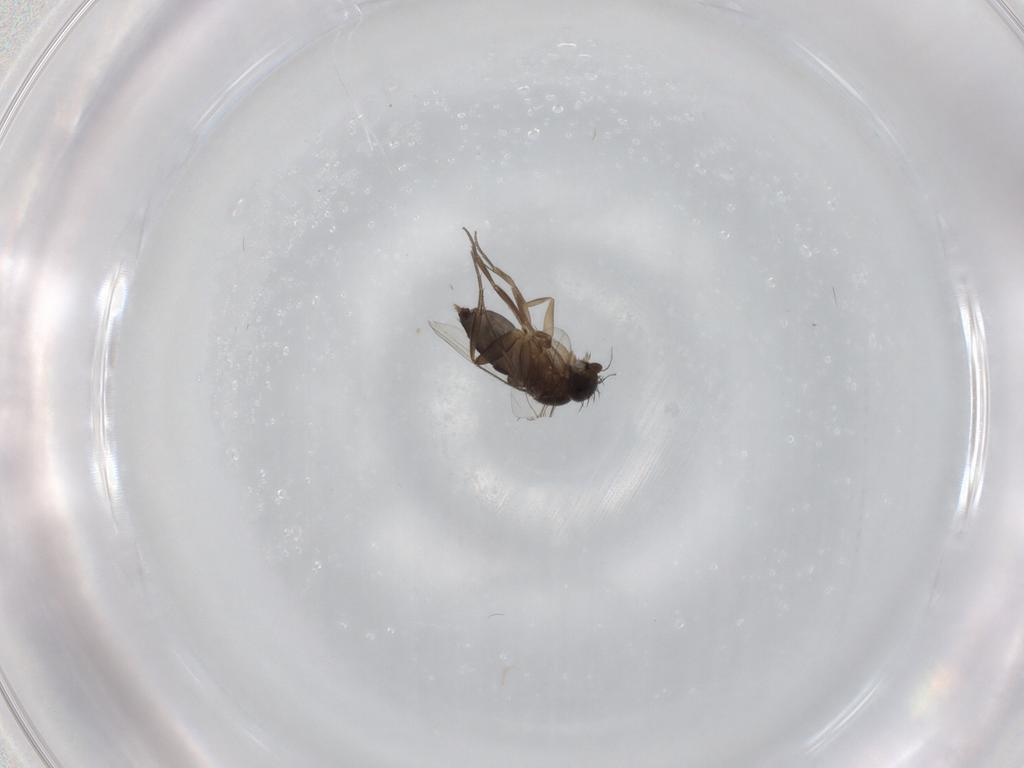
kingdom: Animalia
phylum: Arthropoda
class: Insecta
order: Diptera
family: Phoridae
